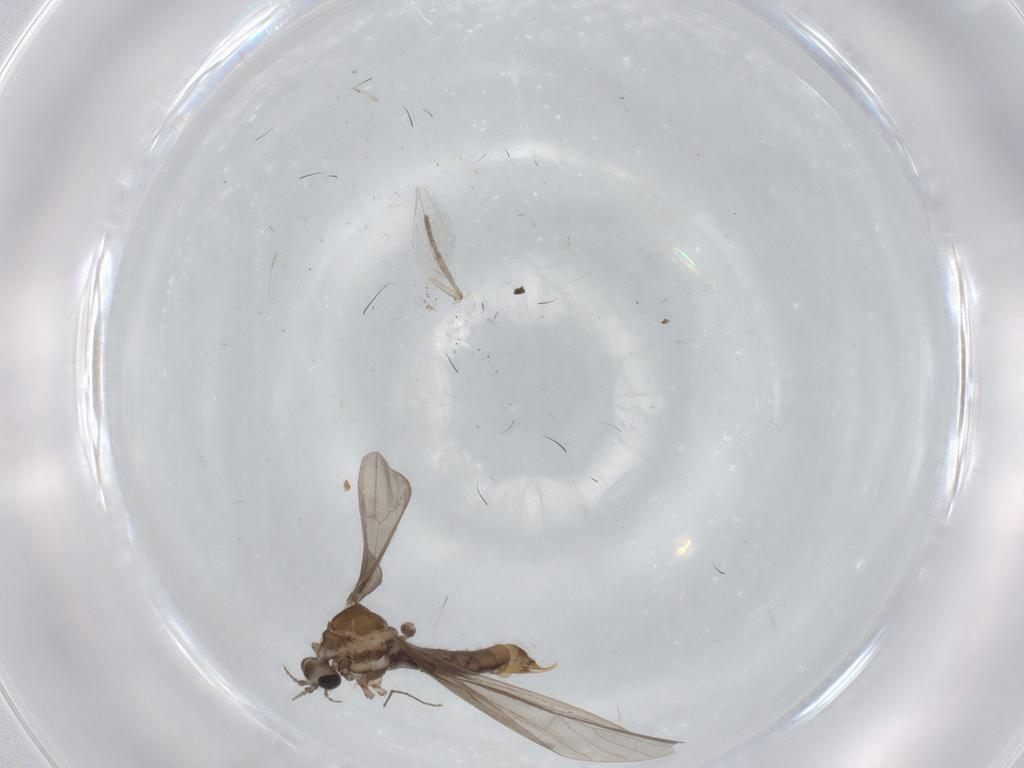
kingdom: Animalia
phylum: Arthropoda
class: Insecta
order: Diptera
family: Limoniidae
